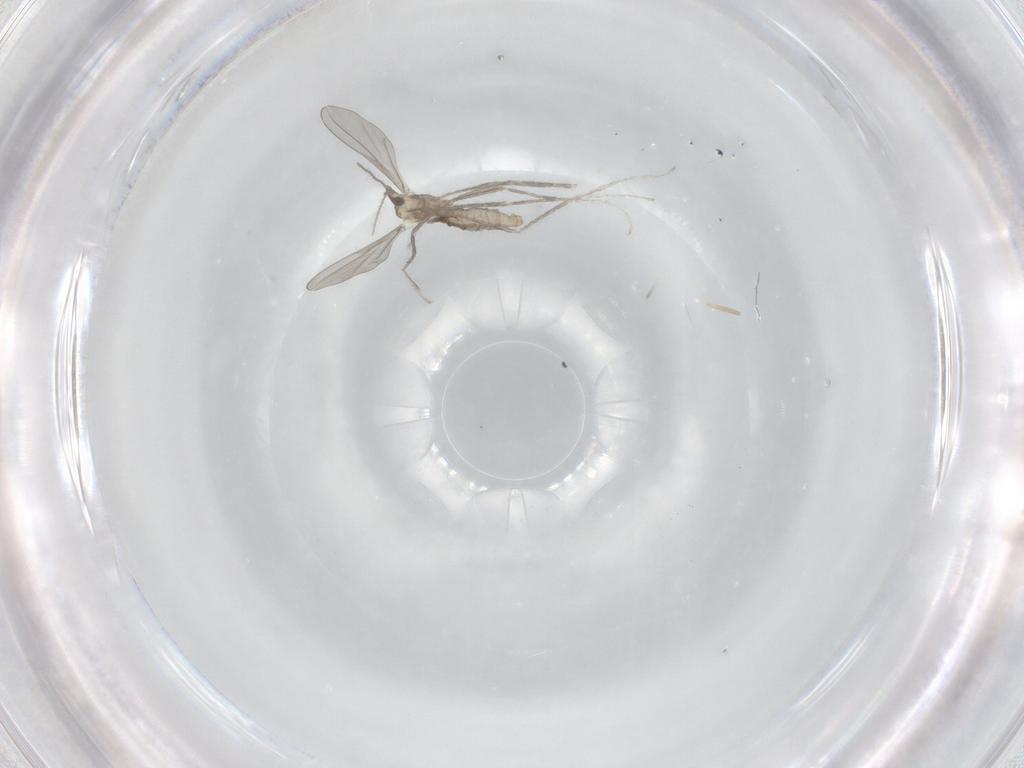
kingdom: Animalia
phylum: Arthropoda
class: Insecta
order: Diptera
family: Cecidomyiidae
